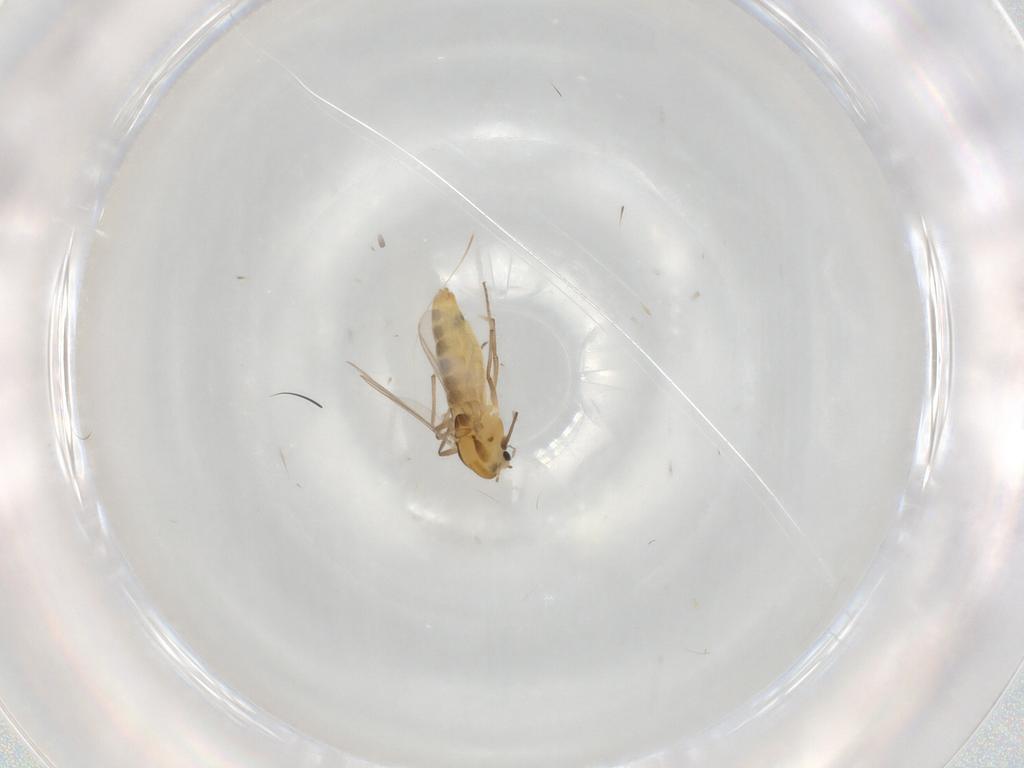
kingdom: Animalia
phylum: Arthropoda
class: Insecta
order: Diptera
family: Chironomidae
